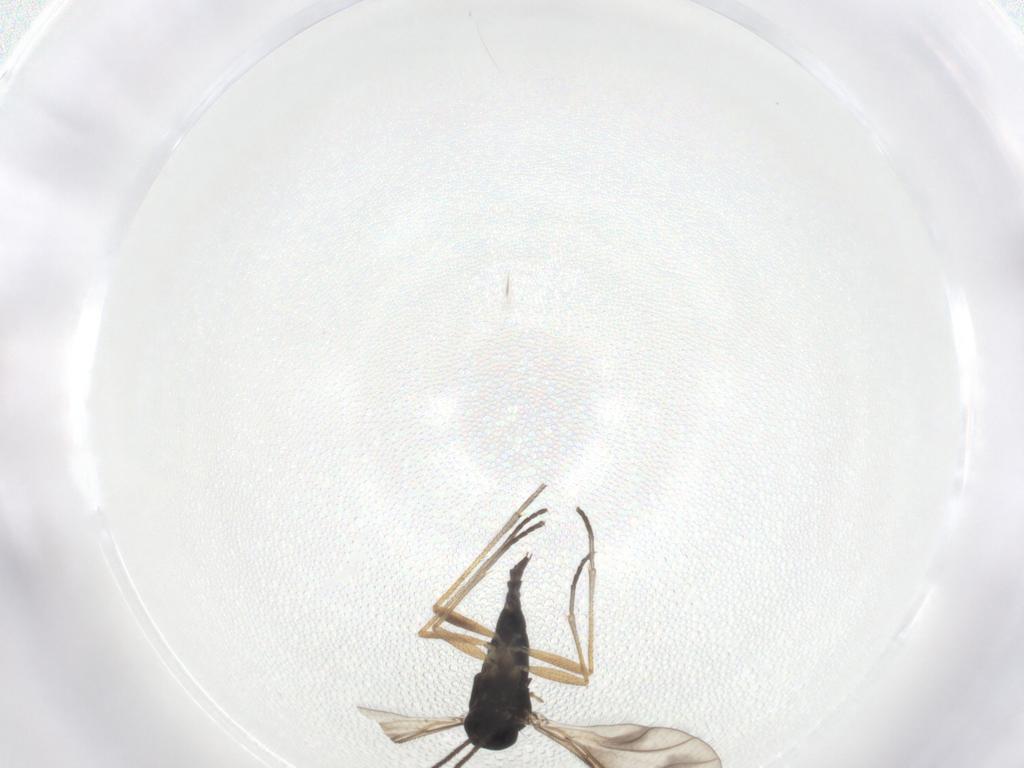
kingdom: Animalia
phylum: Arthropoda
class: Insecta
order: Diptera
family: Sciaridae
